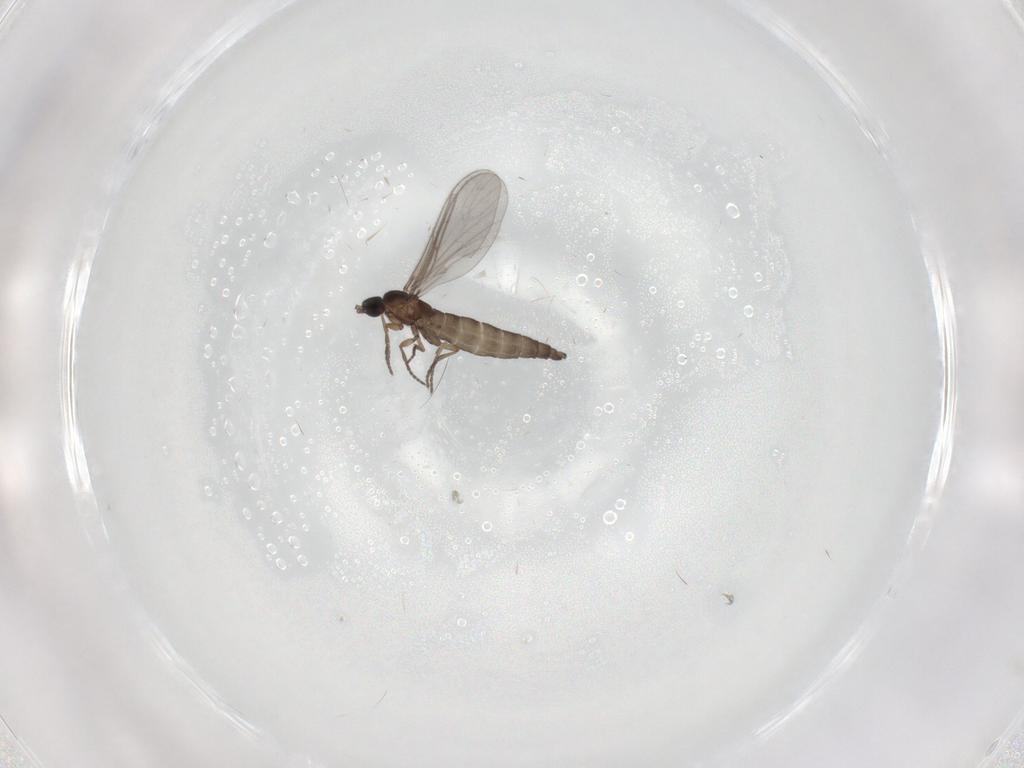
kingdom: Animalia
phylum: Arthropoda
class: Insecta
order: Diptera
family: Sciaridae
